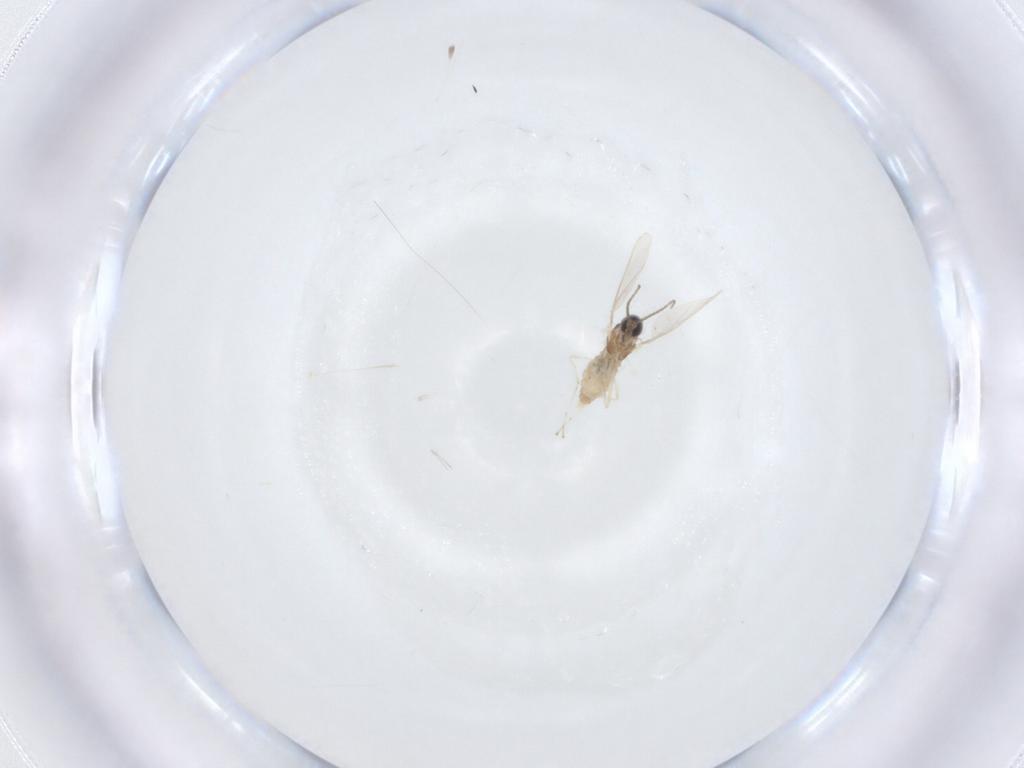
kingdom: Animalia
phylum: Arthropoda
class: Insecta
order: Diptera
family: Cecidomyiidae
